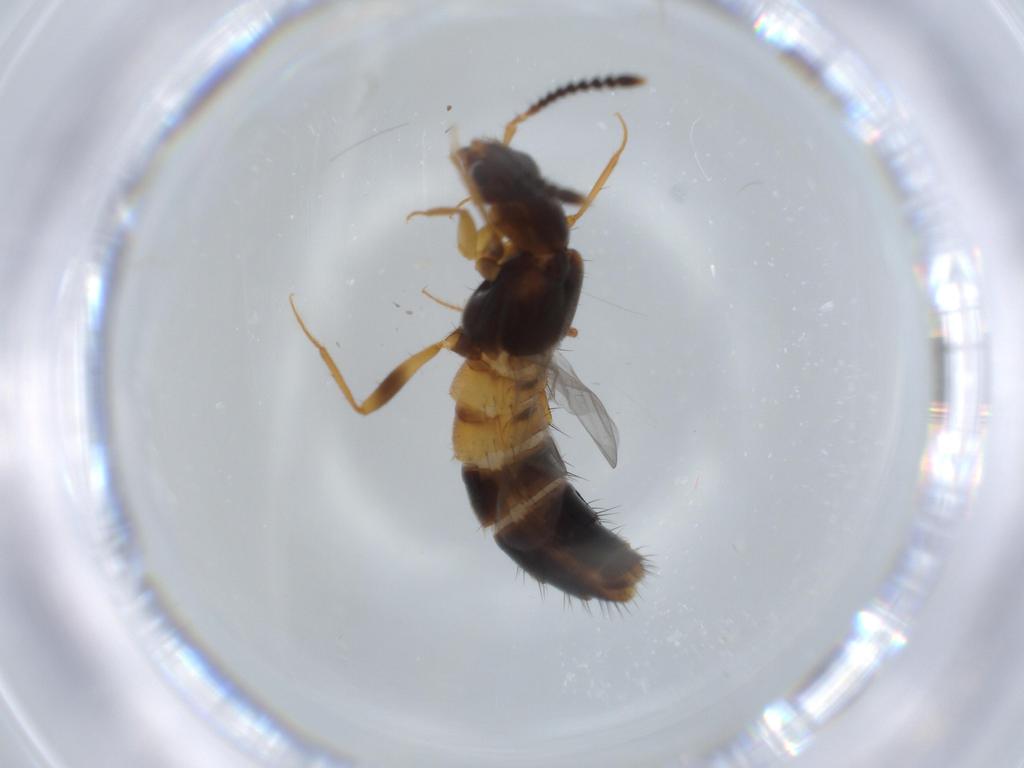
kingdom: Animalia
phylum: Arthropoda
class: Insecta
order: Coleoptera
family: Staphylinidae
